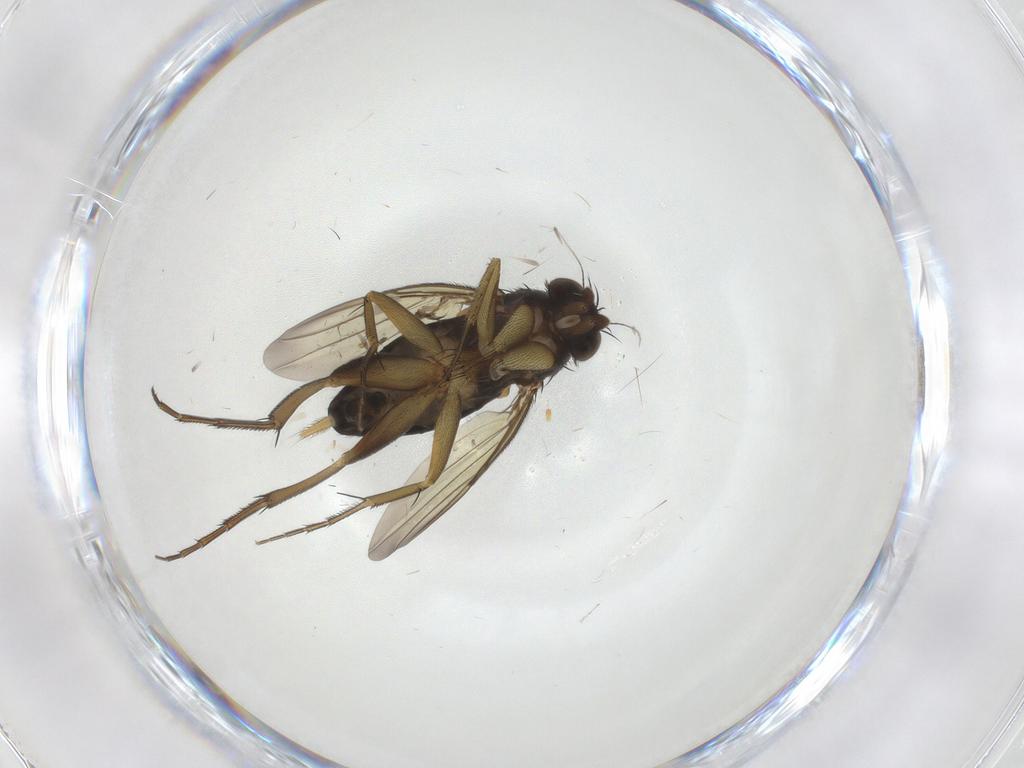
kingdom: Animalia
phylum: Arthropoda
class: Insecta
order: Diptera
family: Phoridae
